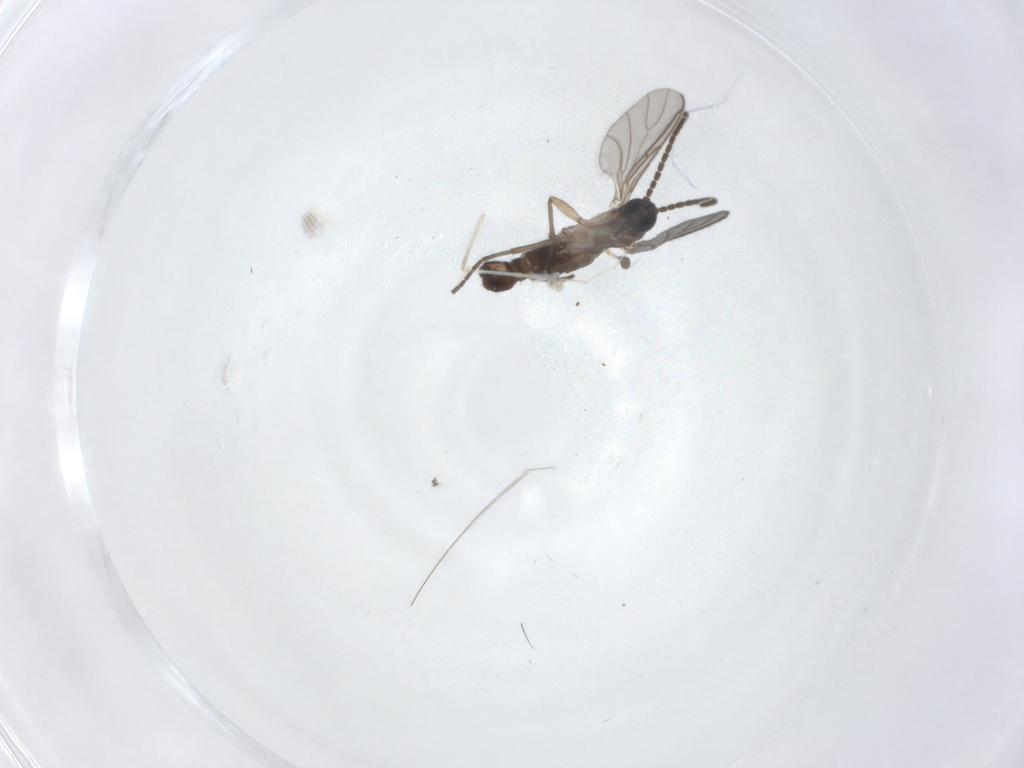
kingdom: Animalia
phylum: Arthropoda
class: Insecta
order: Diptera
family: Sciaridae
